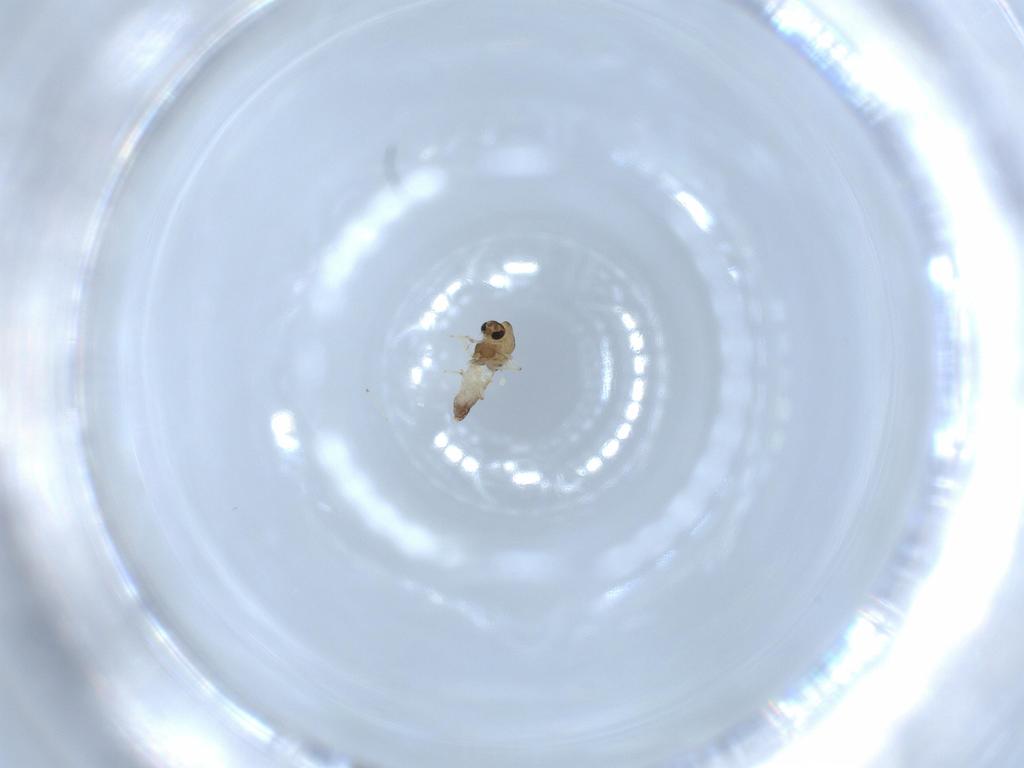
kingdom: Animalia
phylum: Arthropoda
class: Insecta
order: Diptera
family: Chironomidae
